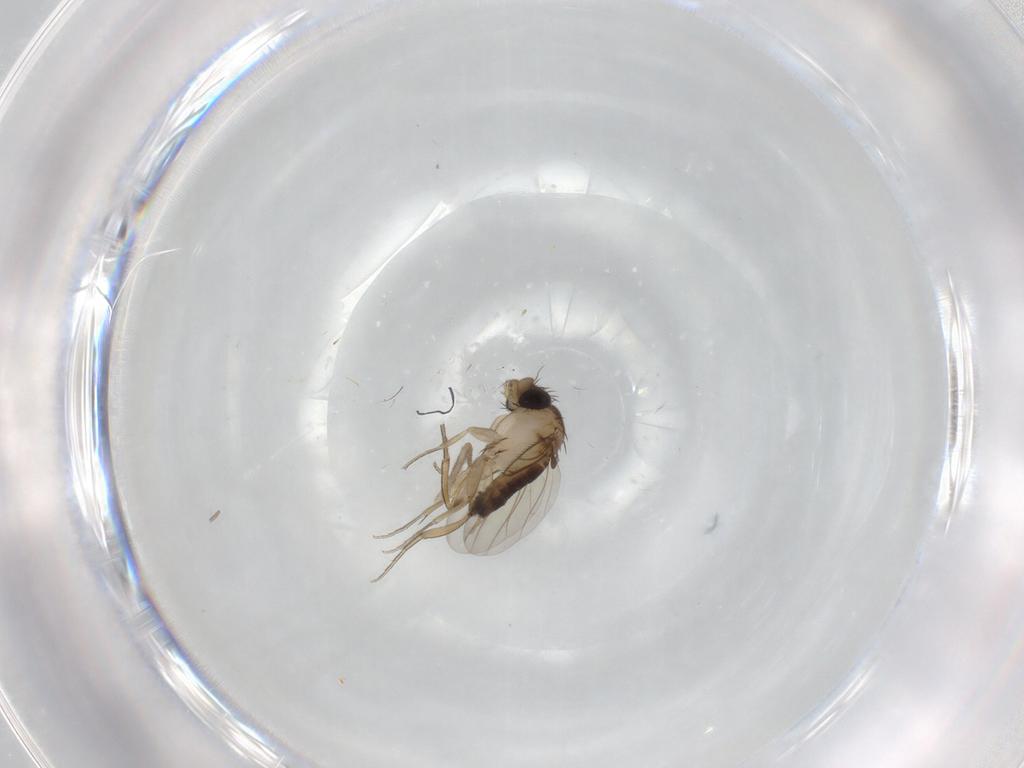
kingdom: Animalia
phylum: Arthropoda
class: Insecta
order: Diptera
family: Phoridae
